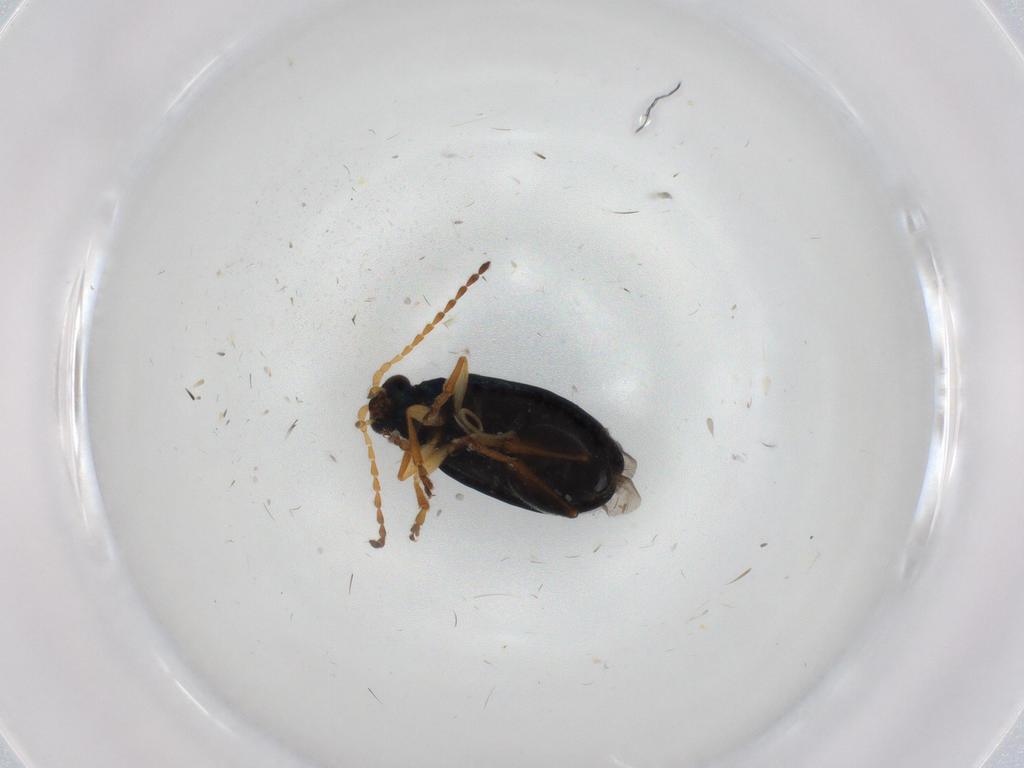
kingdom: Animalia
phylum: Arthropoda
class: Insecta
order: Coleoptera
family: Chrysomelidae
